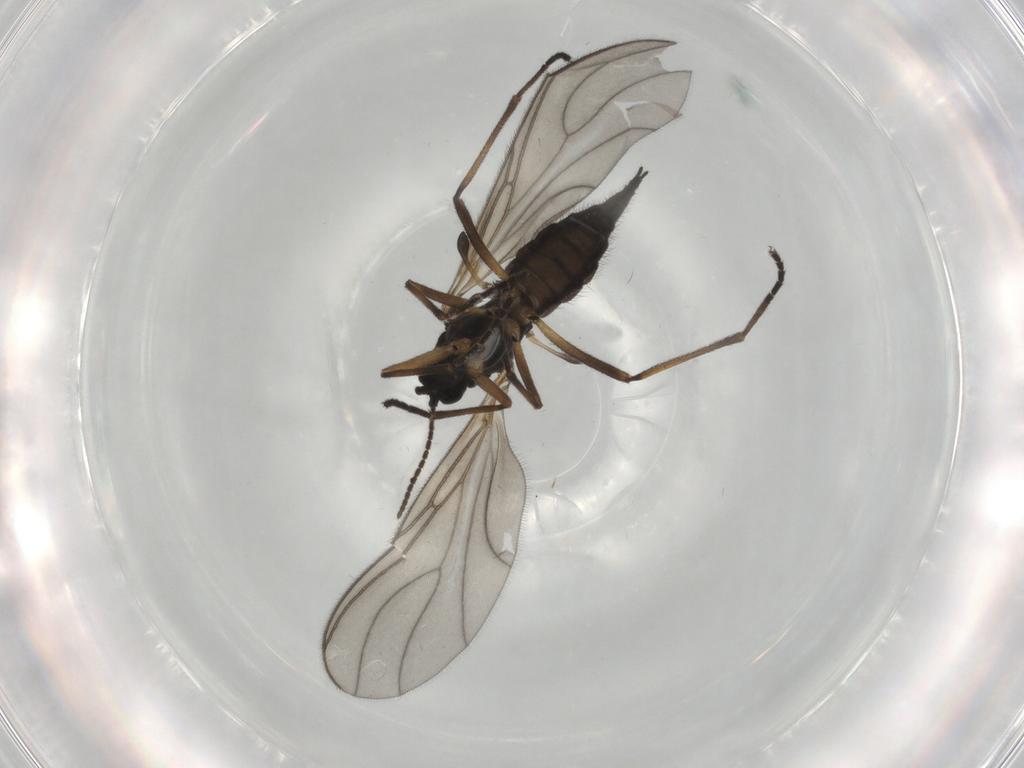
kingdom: Animalia
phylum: Arthropoda
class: Insecta
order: Diptera
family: Sciaridae
